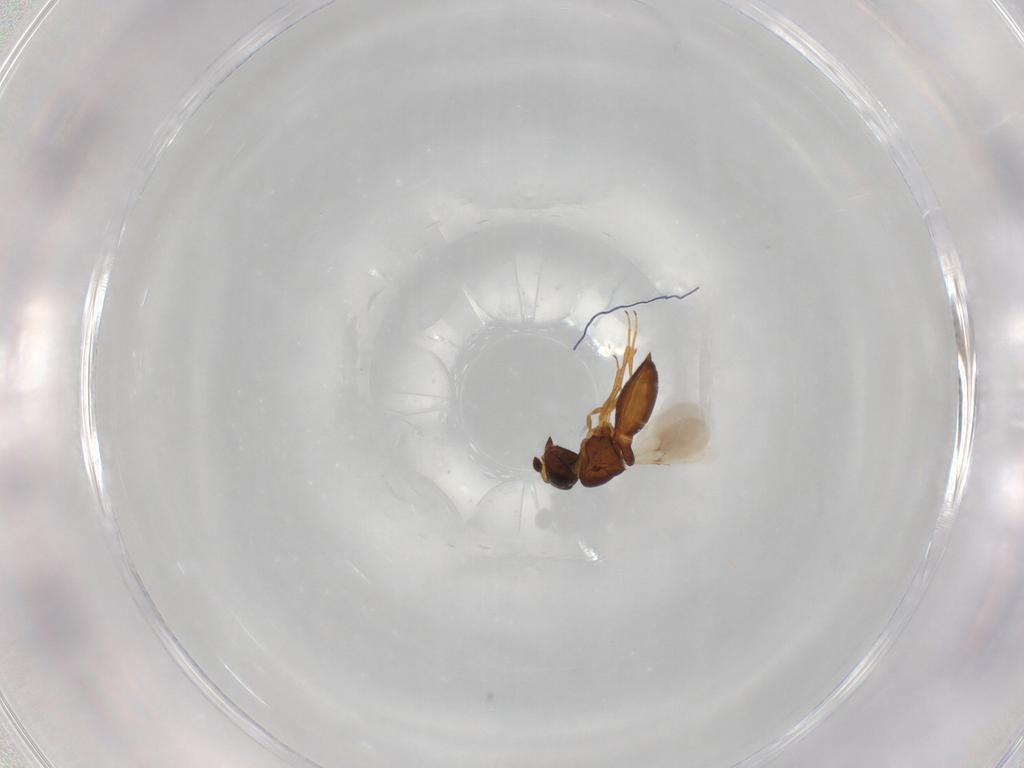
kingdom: Animalia
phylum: Arthropoda
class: Insecta
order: Hymenoptera
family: Scelionidae
